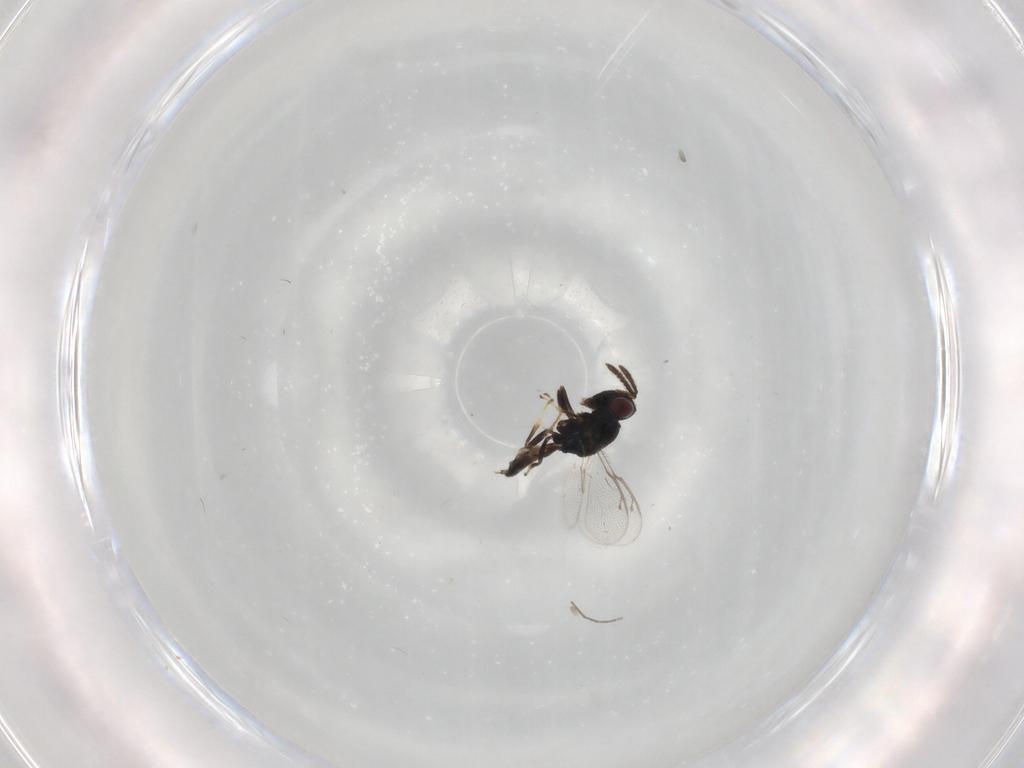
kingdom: Animalia
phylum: Arthropoda
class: Insecta
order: Hymenoptera
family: Pteromalidae
